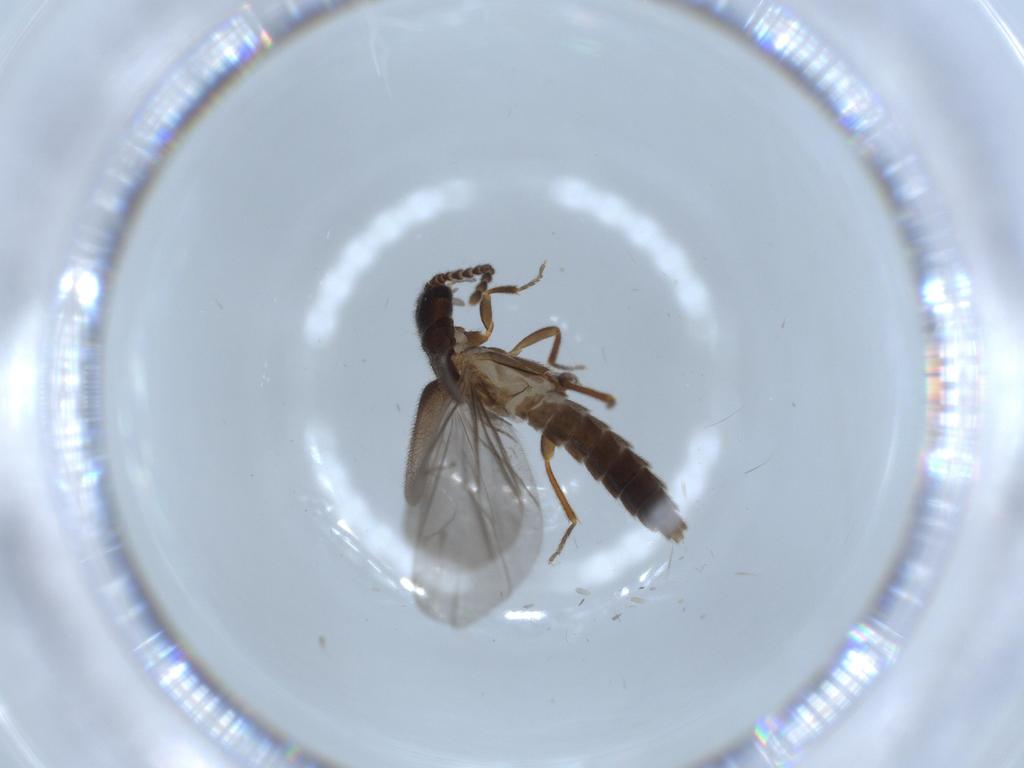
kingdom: Animalia
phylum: Arthropoda
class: Insecta
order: Coleoptera
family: Omethidae
